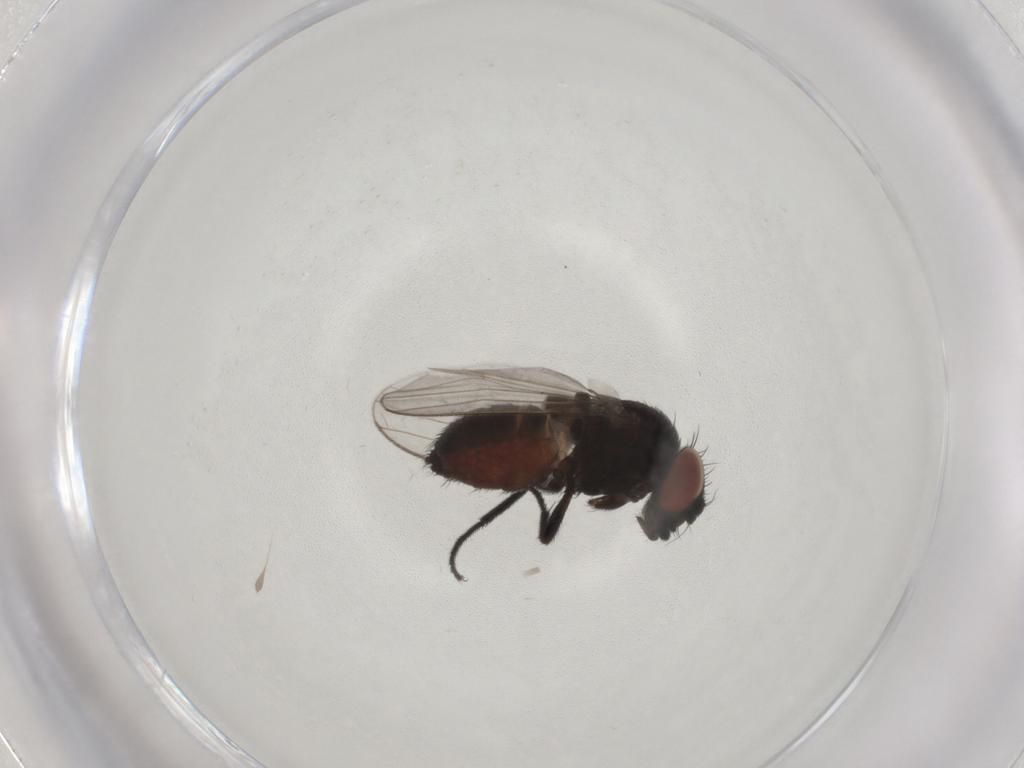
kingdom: Animalia
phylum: Arthropoda
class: Insecta
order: Diptera
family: Milichiidae
